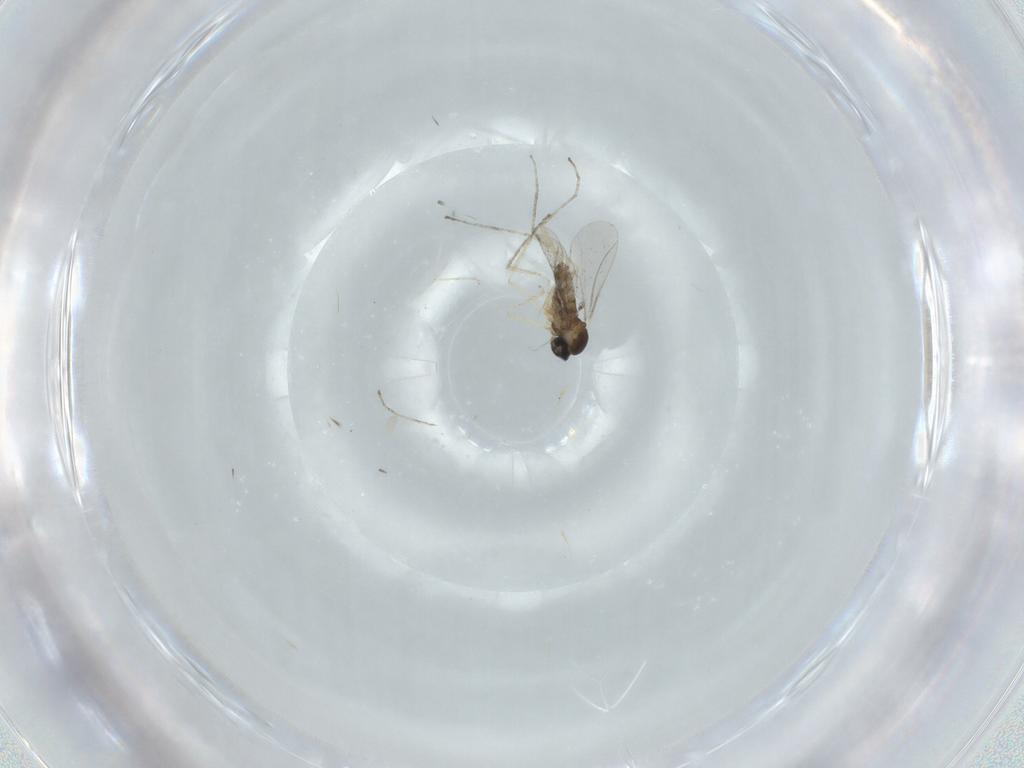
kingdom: Animalia
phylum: Arthropoda
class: Insecta
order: Diptera
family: Cecidomyiidae
